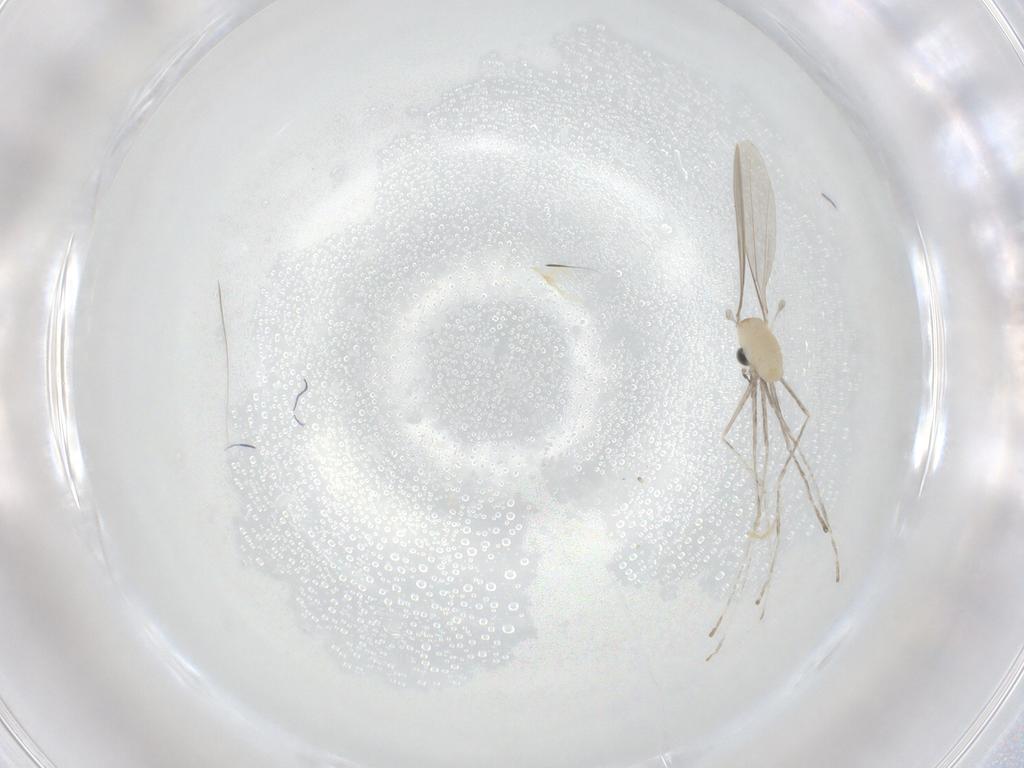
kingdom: Animalia
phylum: Arthropoda
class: Insecta
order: Diptera
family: Cecidomyiidae
